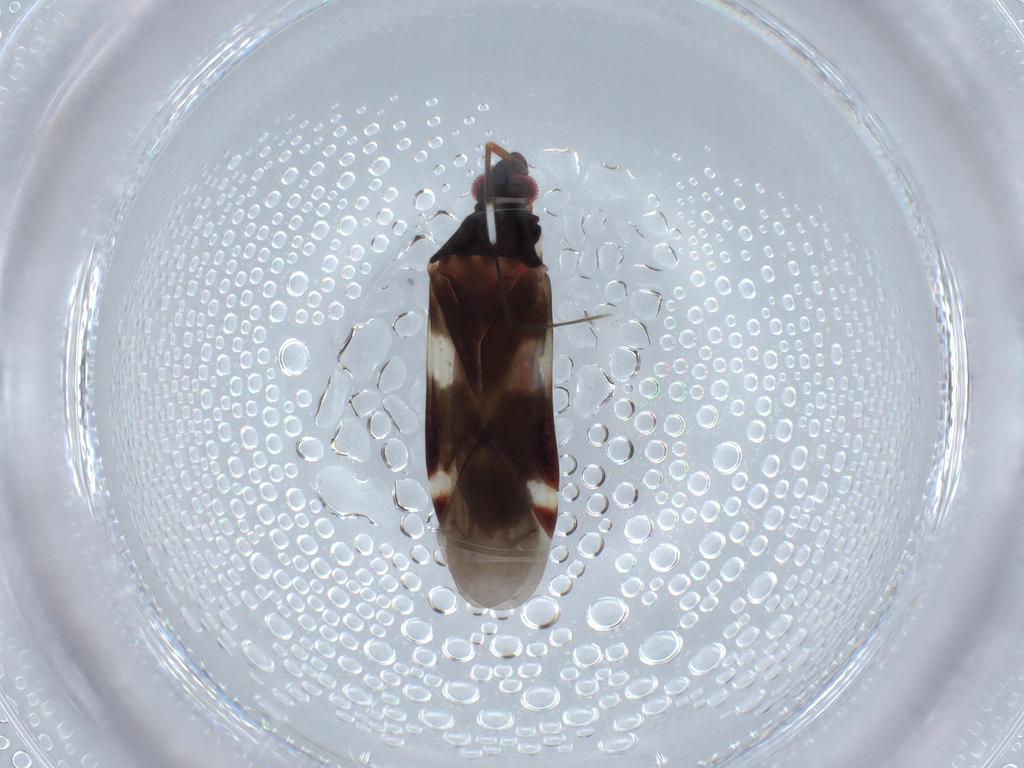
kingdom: Animalia
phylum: Arthropoda
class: Insecta
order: Hemiptera
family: Miridae
